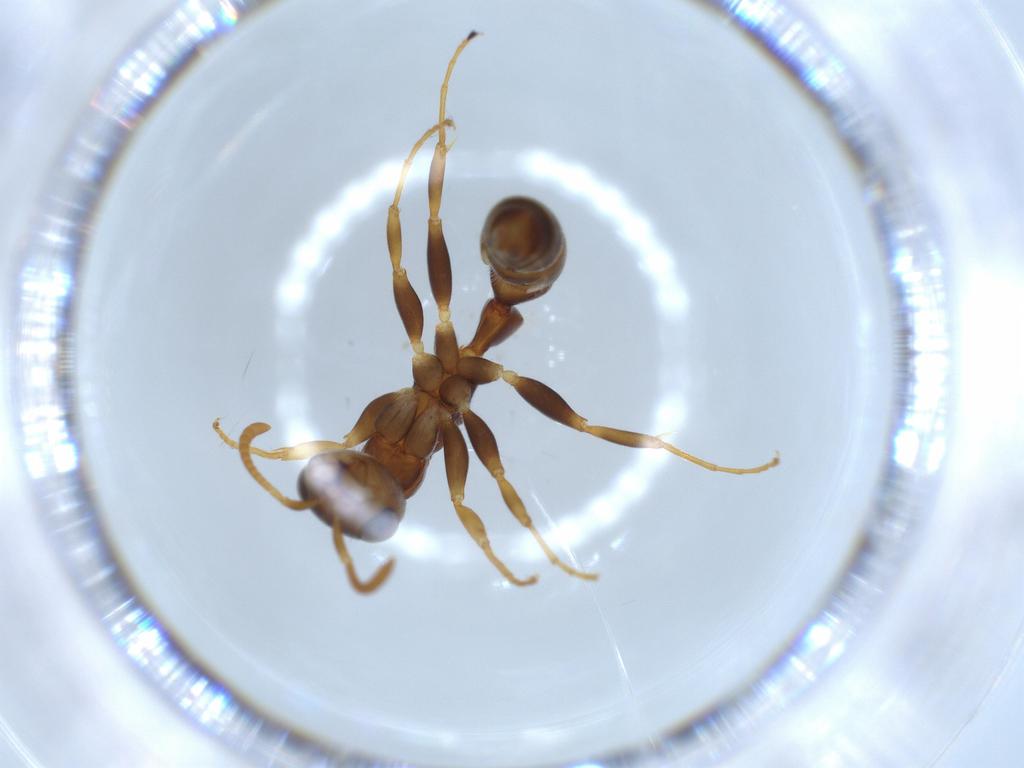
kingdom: Animalia
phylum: Arthropoda
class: Insecta
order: Hymenoptera
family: Formicidae
